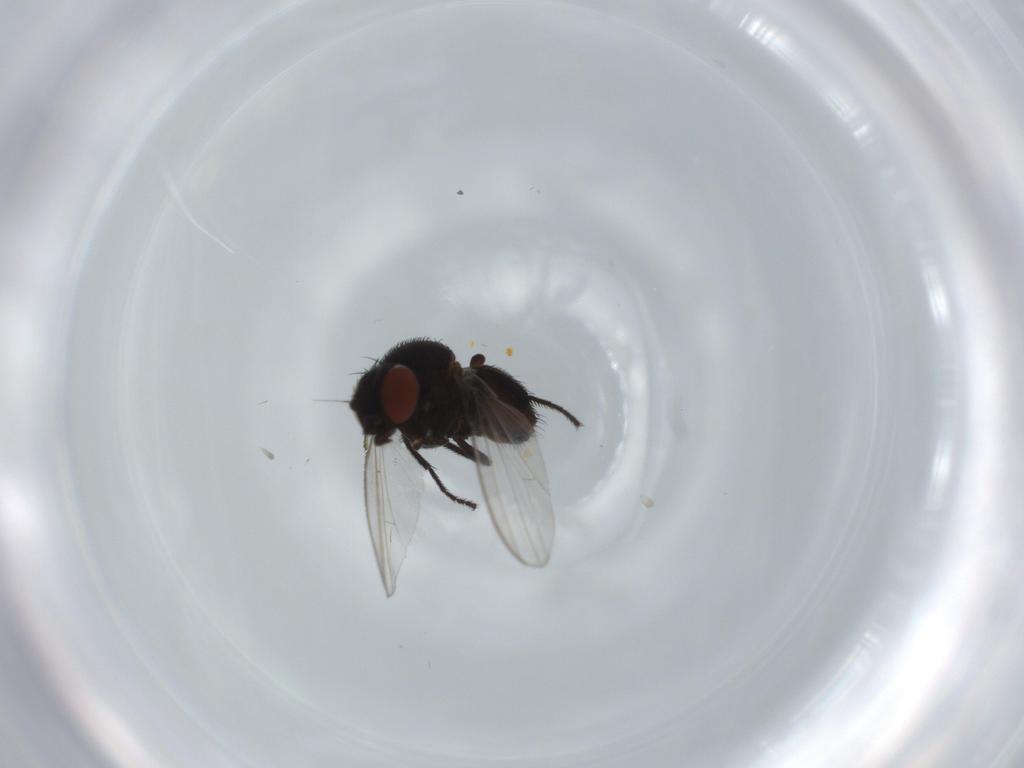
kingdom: Animalia
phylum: Arthropoda
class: Insecta
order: Diptera
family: Milichiidae
